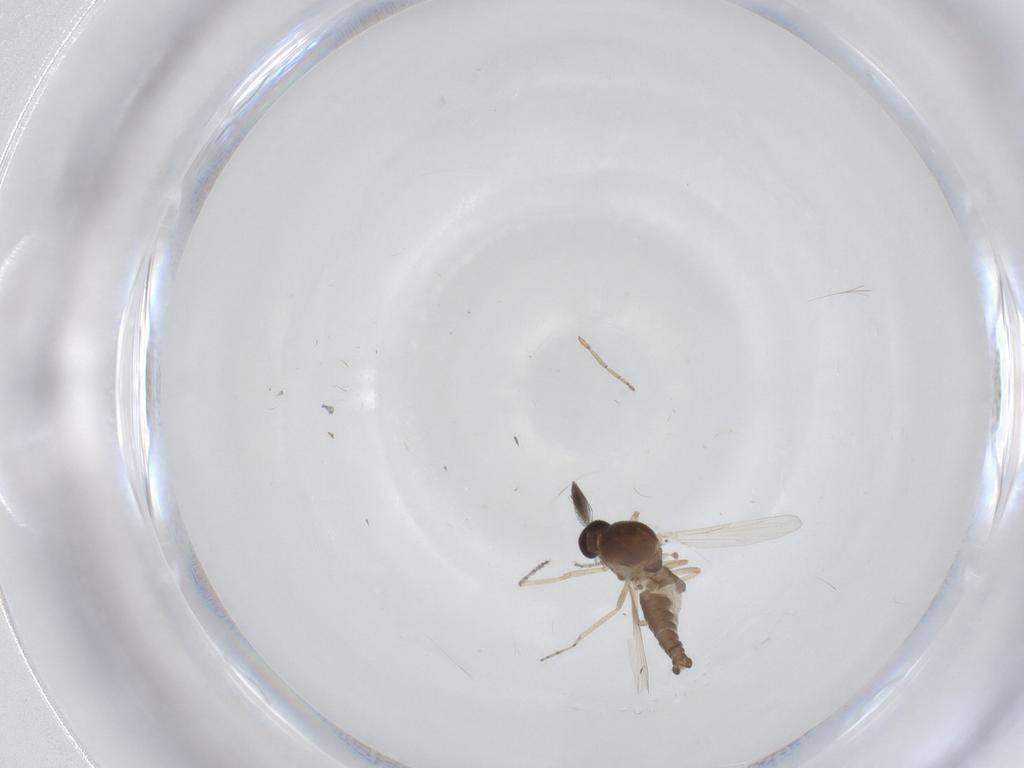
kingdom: Animalia
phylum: Arthropoda
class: Insecta
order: Diptera
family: Ceratopogonidae
